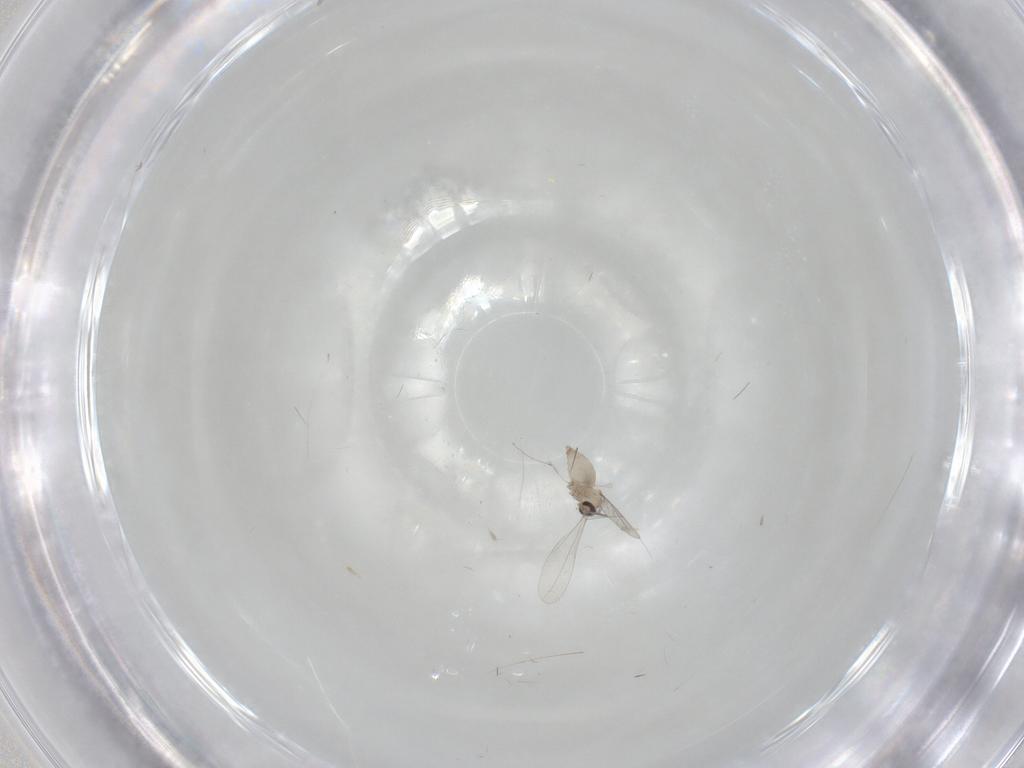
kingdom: Animalia
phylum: Arthropoda
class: Insecta
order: Diptera
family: Cecidomyiidae
